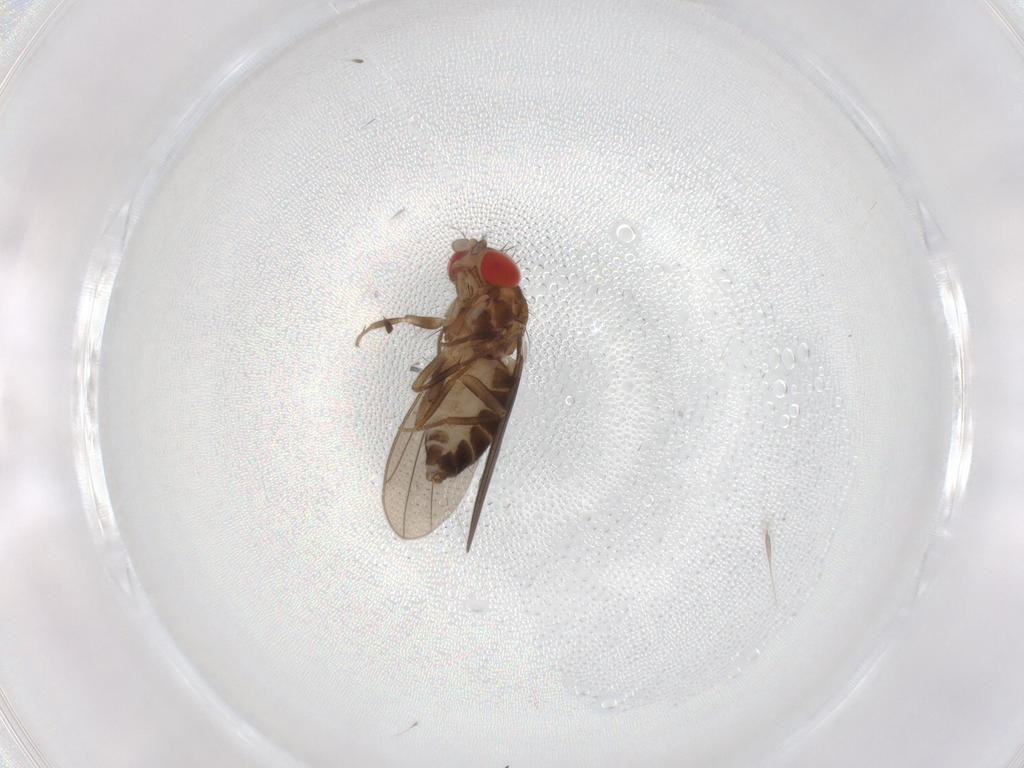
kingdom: Animalia
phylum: Arthropoda
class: Insecta
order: Diptera
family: Drosophilidae
